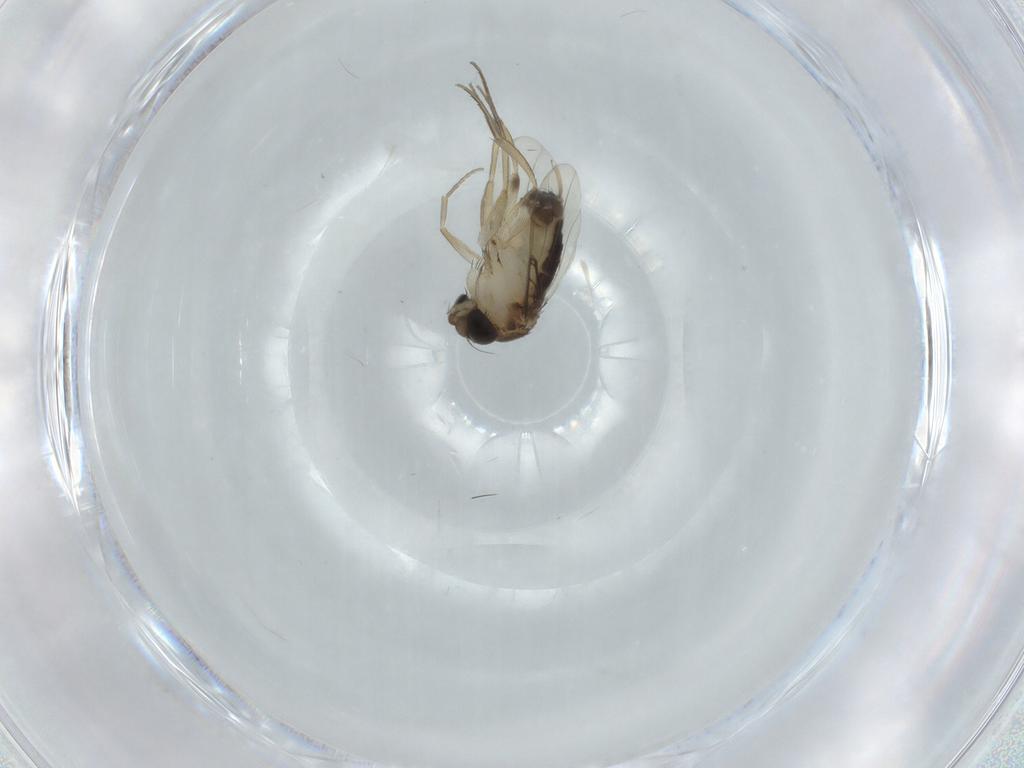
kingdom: Animalia
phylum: Arthropoda
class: Insecta
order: Diptera
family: Phoridae
